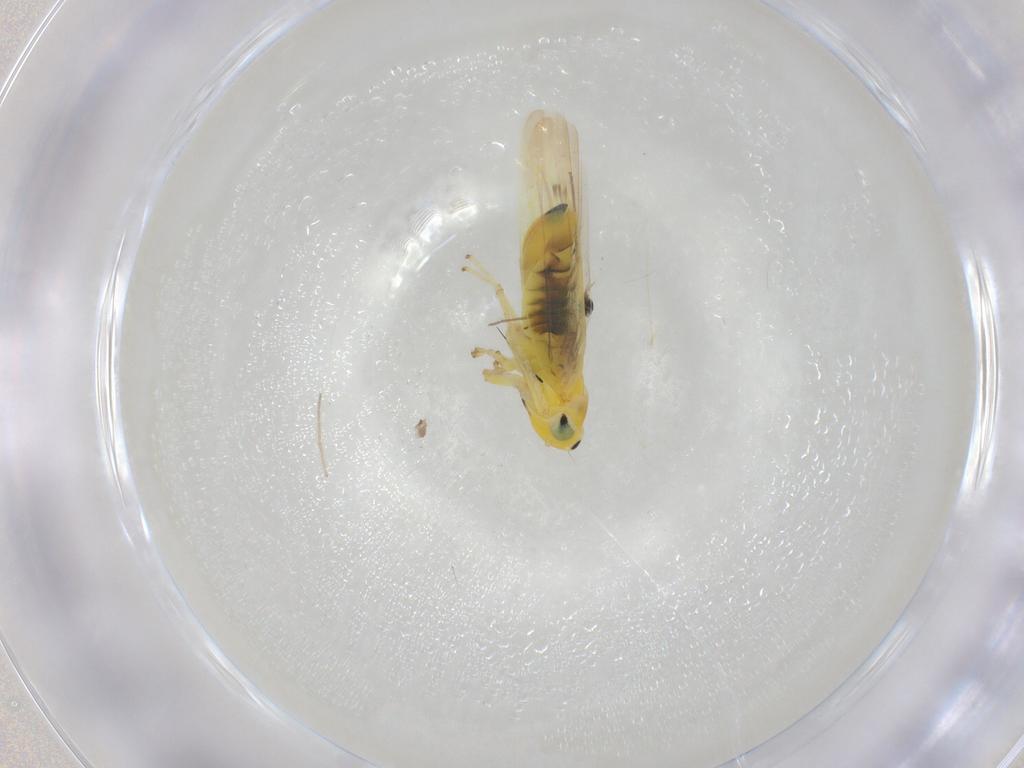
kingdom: Animalia
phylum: Arthropoda
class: Insecta
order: Hemiptera
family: Cicadellidae
